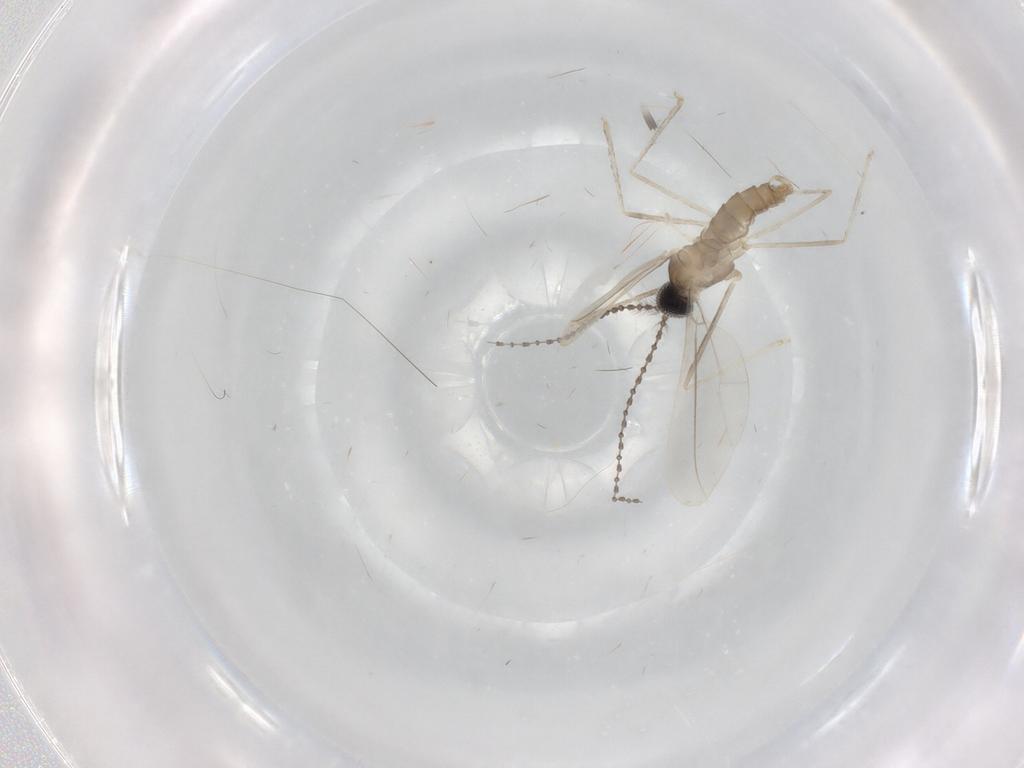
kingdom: Animalia
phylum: Arthropoda
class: Insecta
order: Diptera
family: Cecidomyiidae
